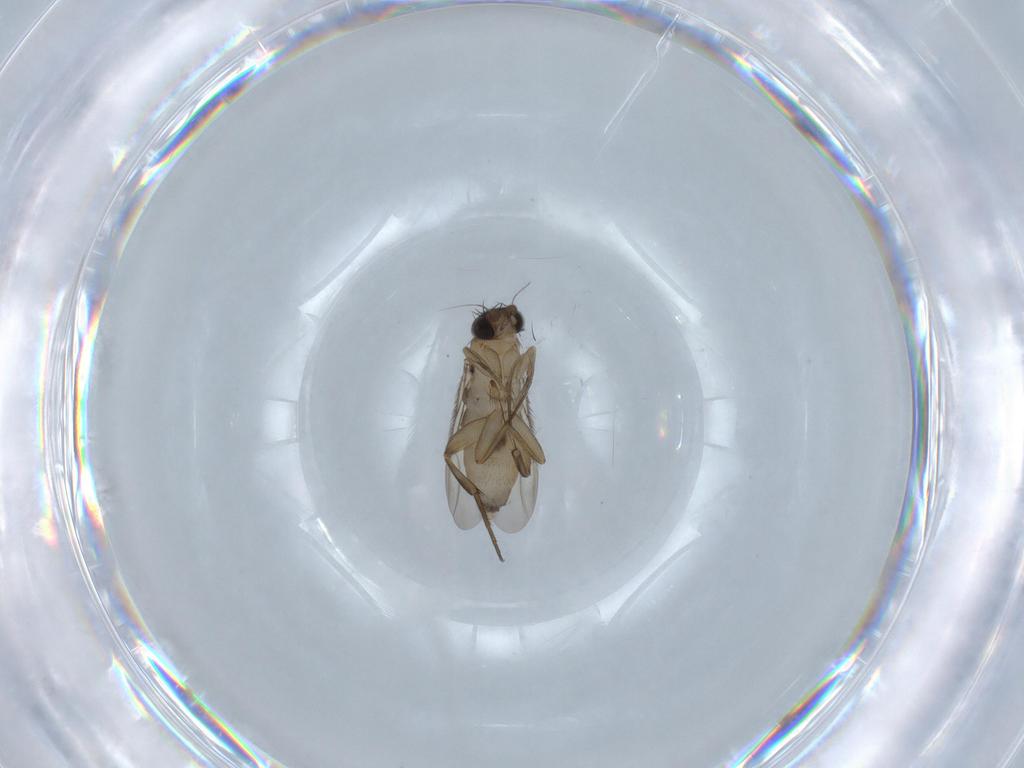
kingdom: Animalia
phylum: Arthropoda
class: Insecta
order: Diptera
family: Phoridae
